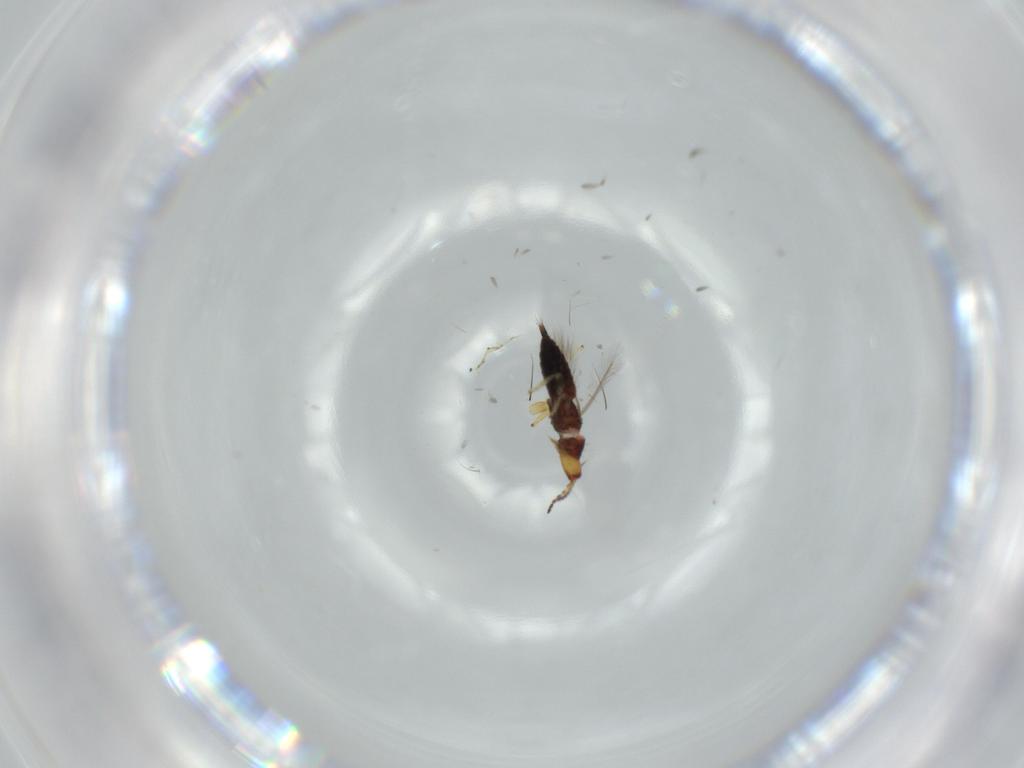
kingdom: Animalia
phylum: Arthropoda
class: Insecta
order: Thysanoptera
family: Phlaeothripidae
